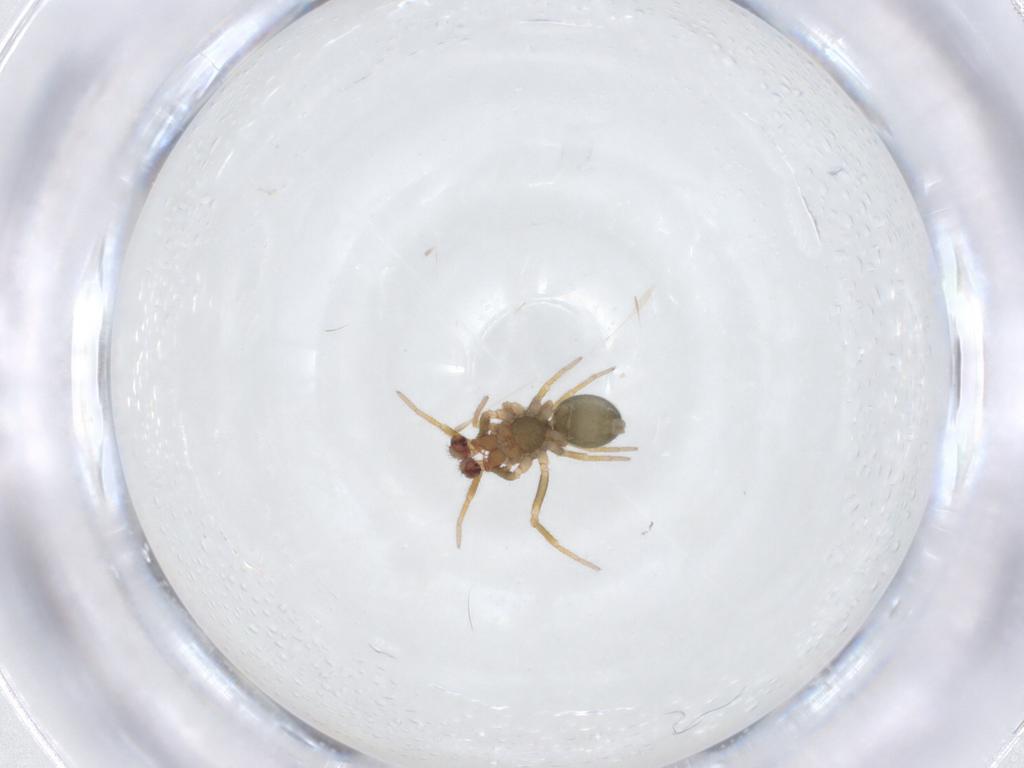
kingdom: Animalia
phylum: Arthropoda
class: Arachnida
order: Araneae
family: Linyphiidae
